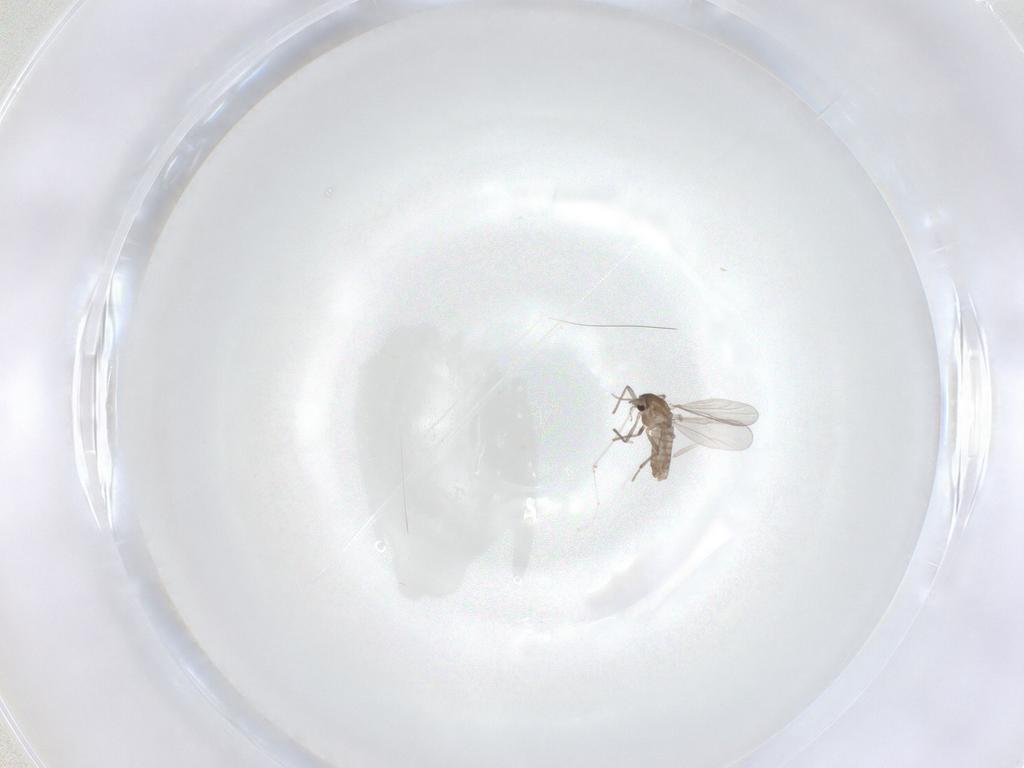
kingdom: Animalia
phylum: Arthropoda
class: Insecta
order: Diptera
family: Chironomidae
